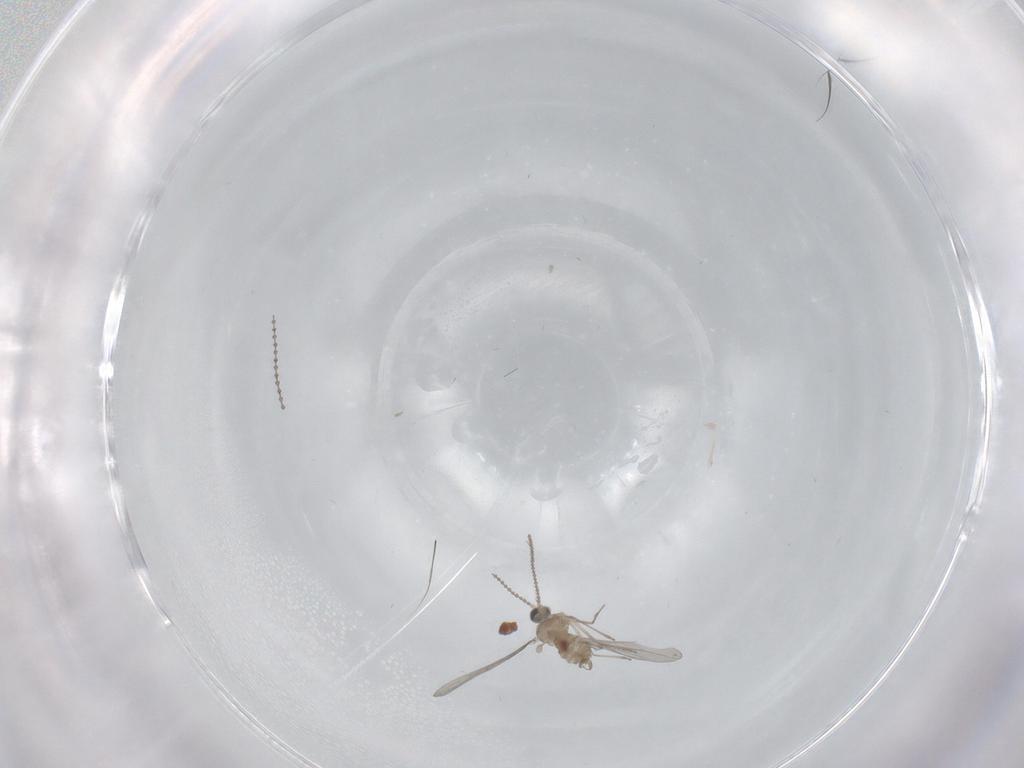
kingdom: Animalia
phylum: Arthropoda
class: Insecta
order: Diptera
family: Cecidomyiidae
